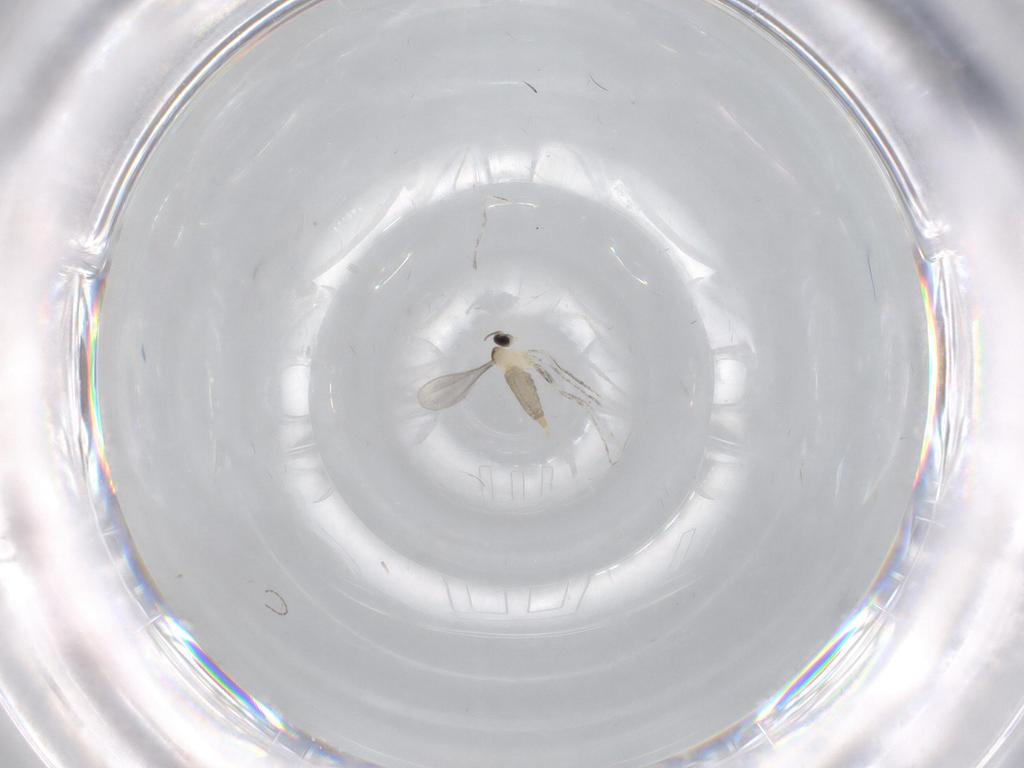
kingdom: Animalia
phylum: Arthropoda
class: Insecta
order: Diptera
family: Cecidomyiidae
